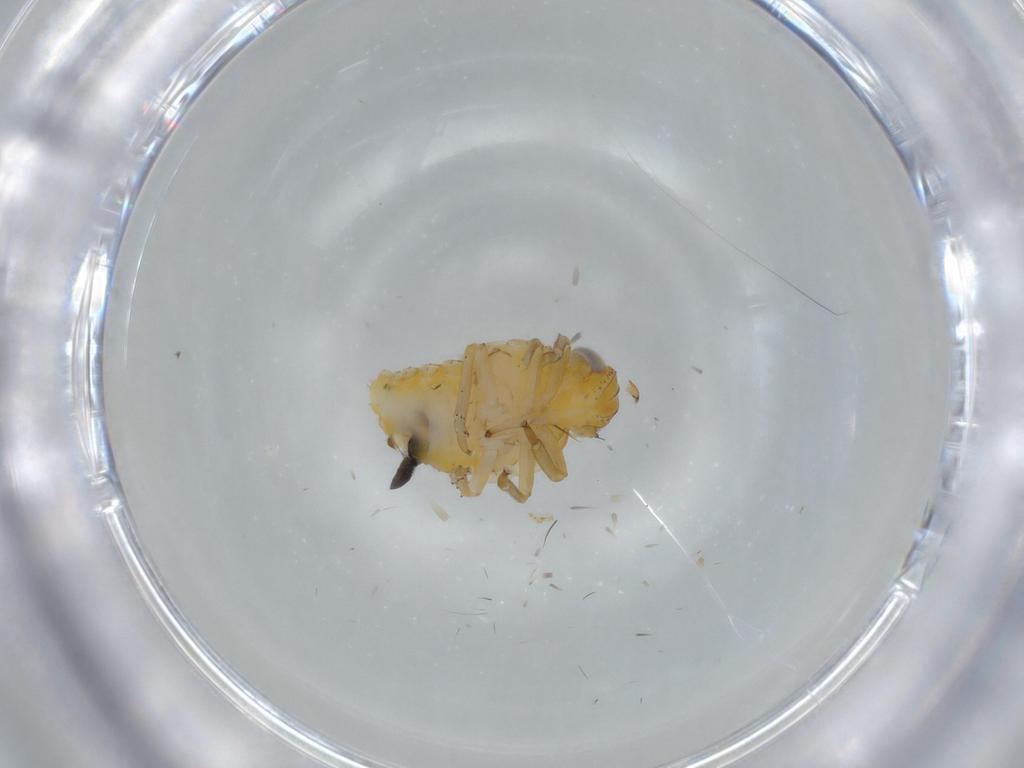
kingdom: Animalia
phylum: Arthropoda
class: Insecta
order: Hemiptera
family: Issidae
